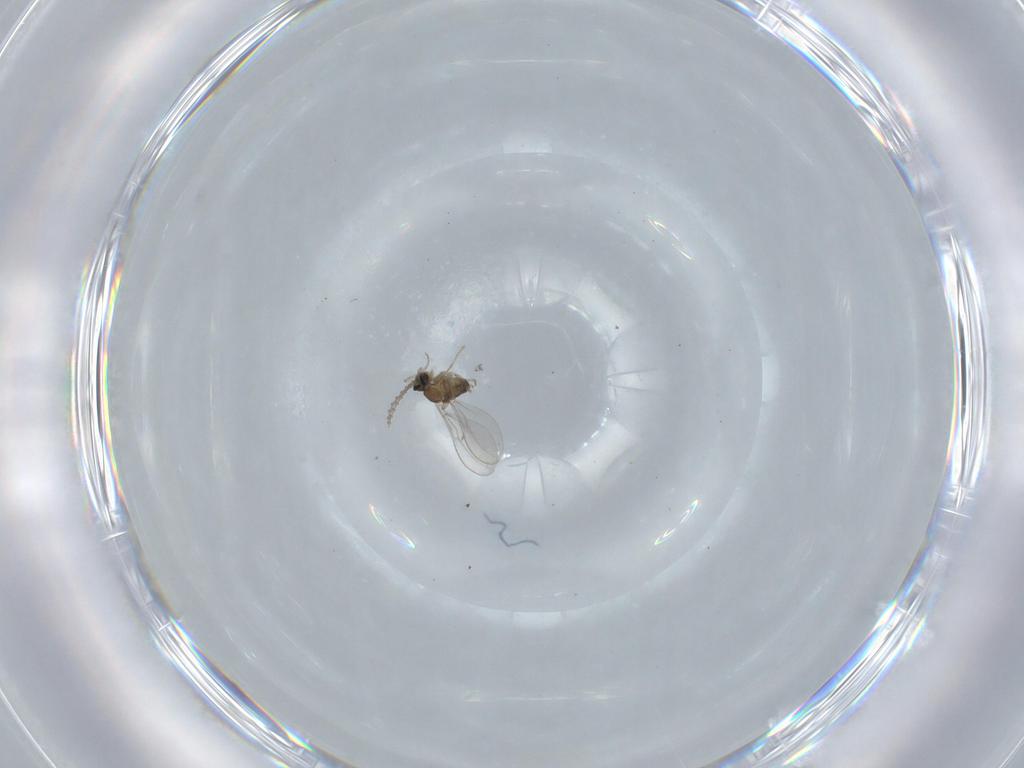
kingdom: Animalia
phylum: Arthropoda
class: Insecta
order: Diptera
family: Cecidomyiidae
